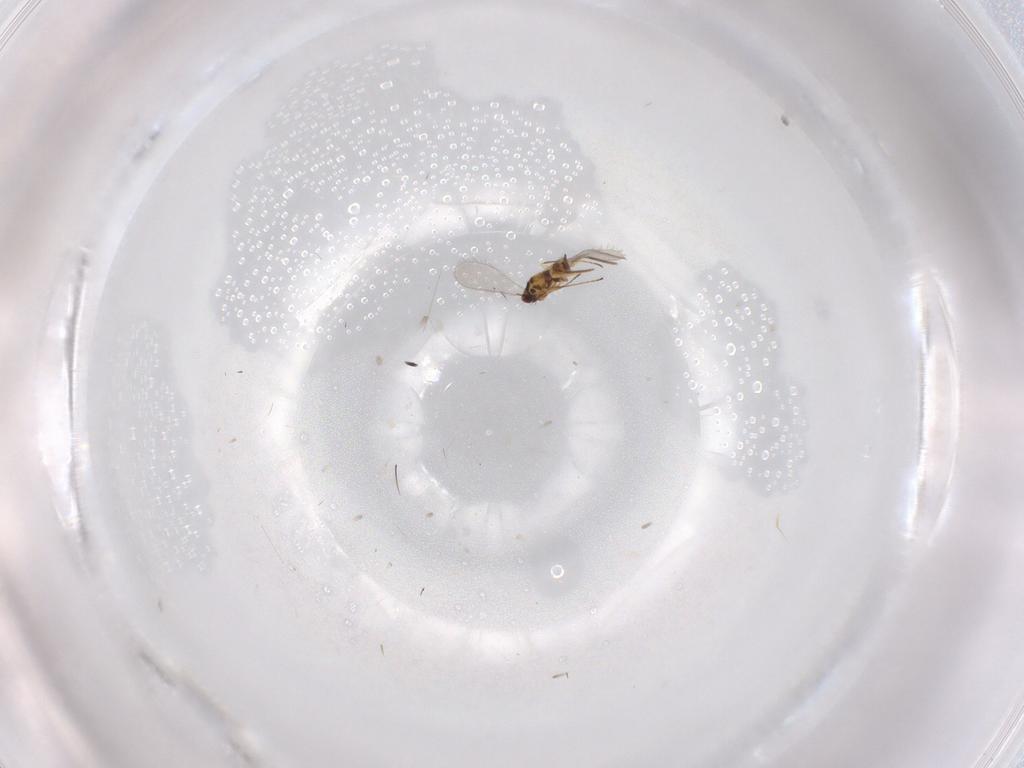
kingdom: Animalia
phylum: Arthropoda
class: Insecta
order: Hymenoptera
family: Mymaridae
